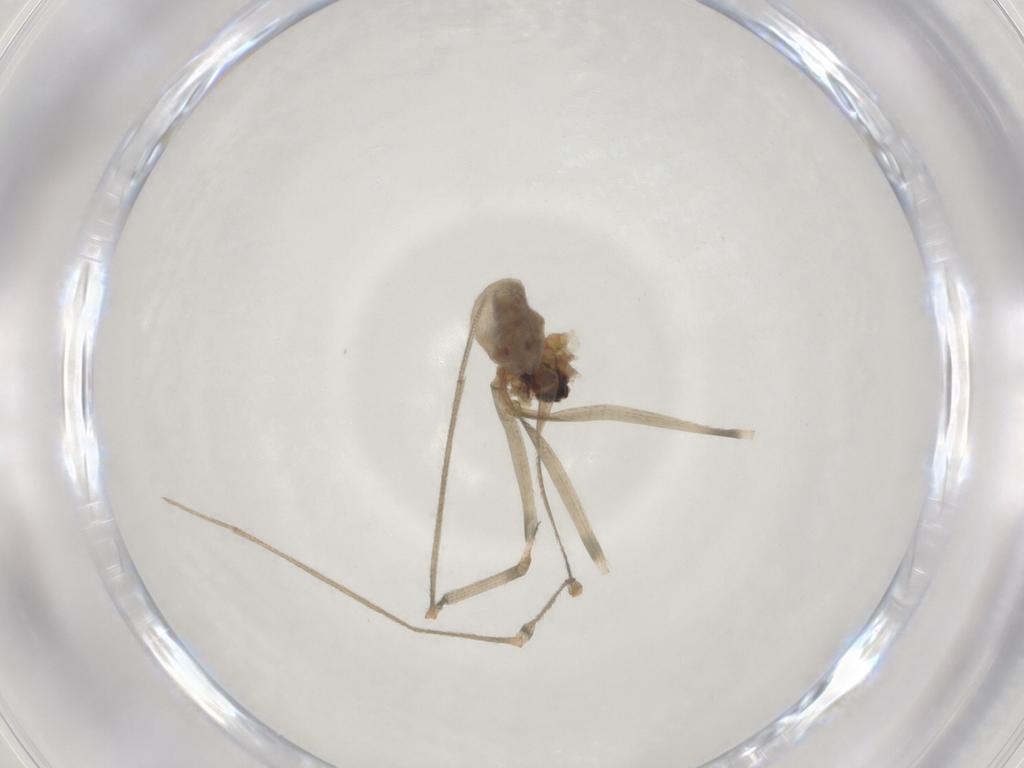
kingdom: Animalia
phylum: Arthropoda
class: Arachnida
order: Araneae
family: Pholcidae
